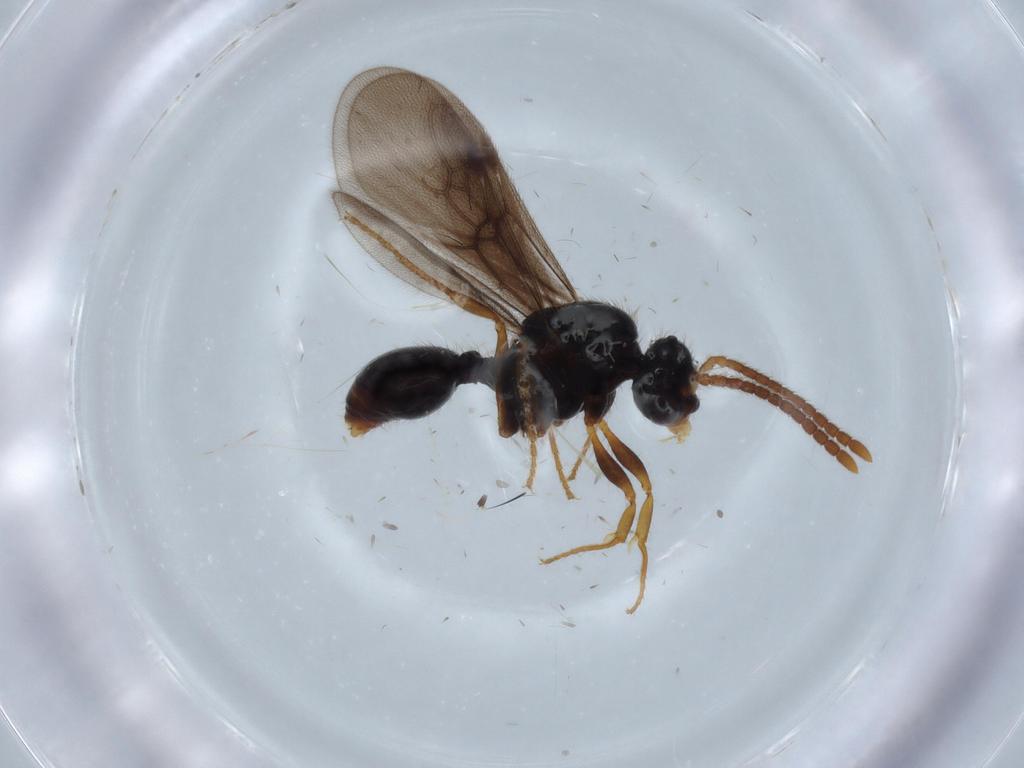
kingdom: Animalia
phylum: Arthropoda
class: Insecta
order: Hymenoptera
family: Formicidae
